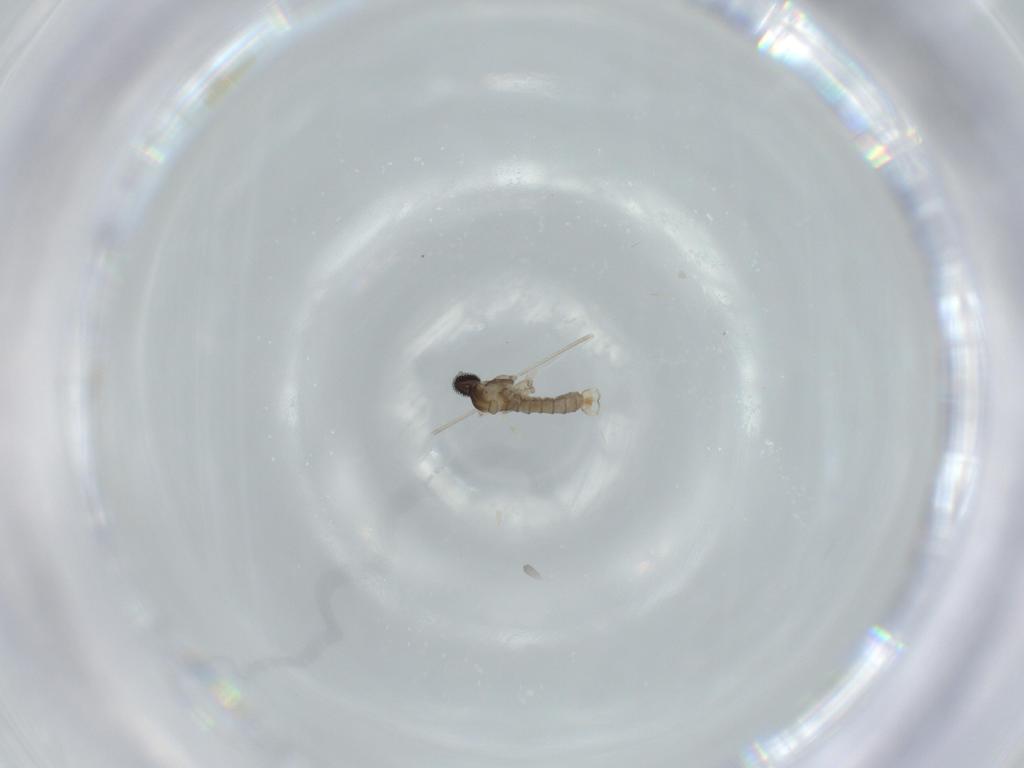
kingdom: Animalia
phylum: Arthropoda
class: Insecta
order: Diptera
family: Cecidomyiidae
